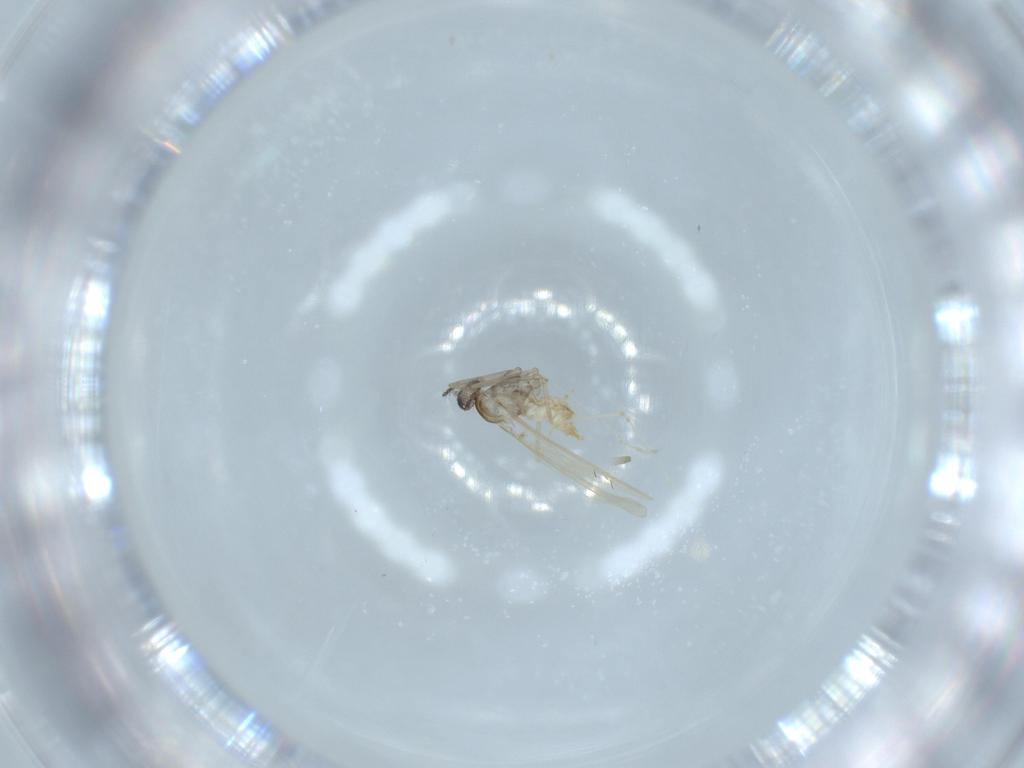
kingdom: Animalia
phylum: Arthropoda
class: Insecta
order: Diptera
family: Cecidomyiidae
